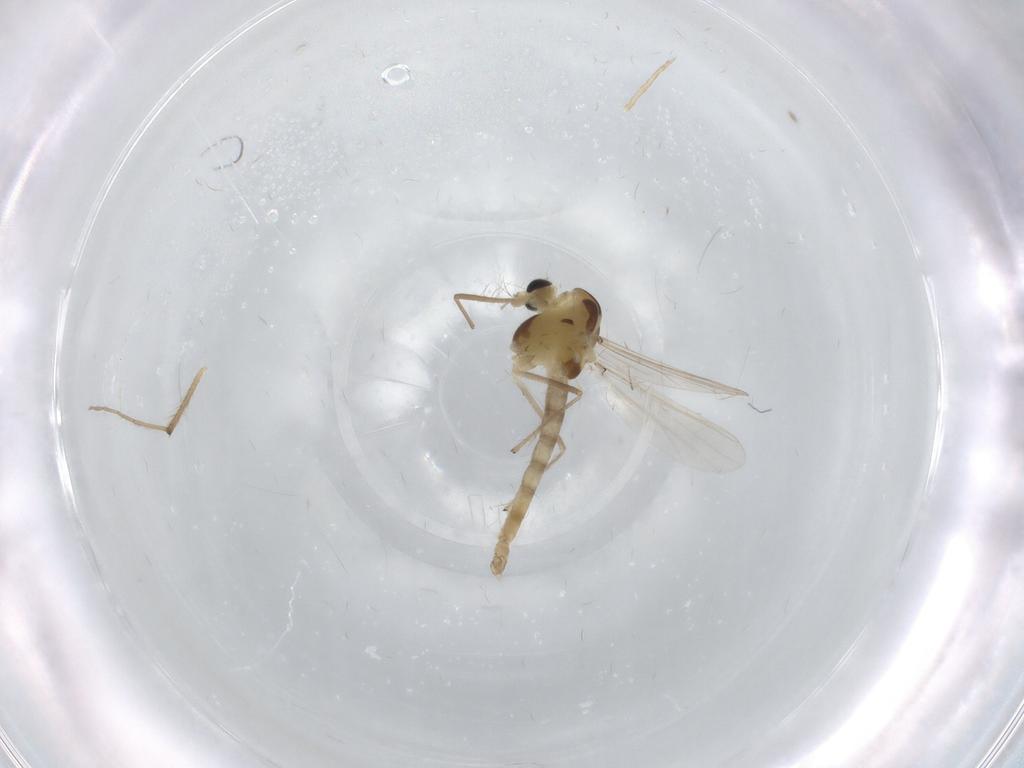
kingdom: Animalia
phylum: Arthropoda
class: Insecta
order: Diptera
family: Chironomidae
